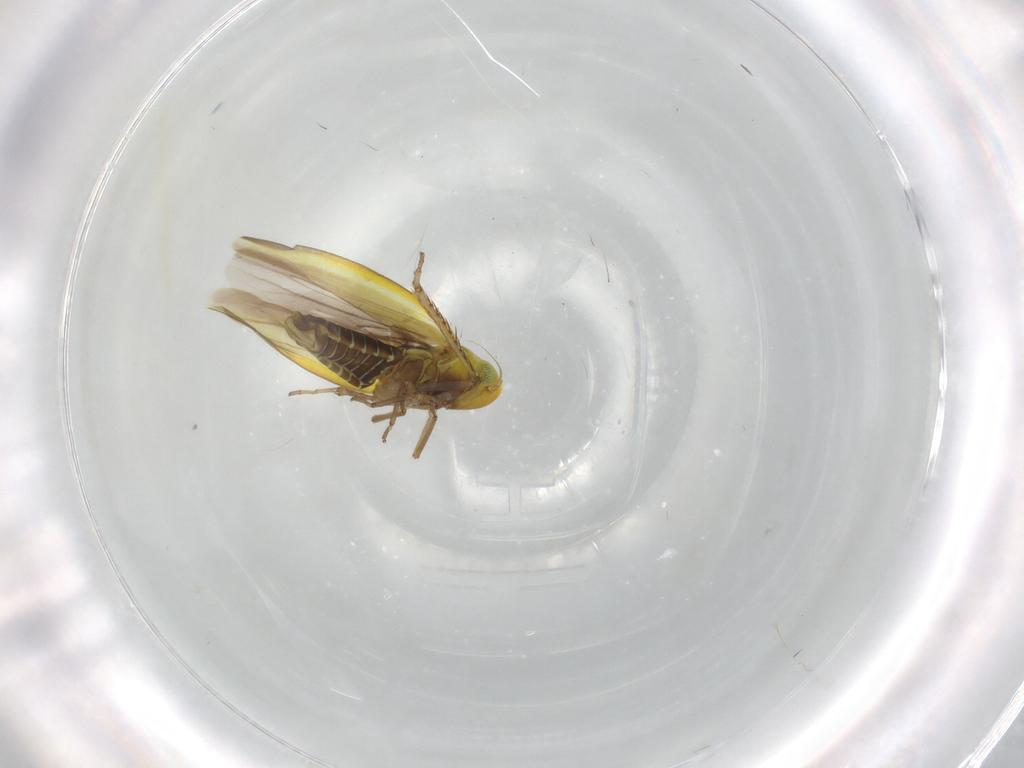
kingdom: Animalia
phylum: Arthropoda
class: Insecta
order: Hemiptera
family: Cicadellidae
